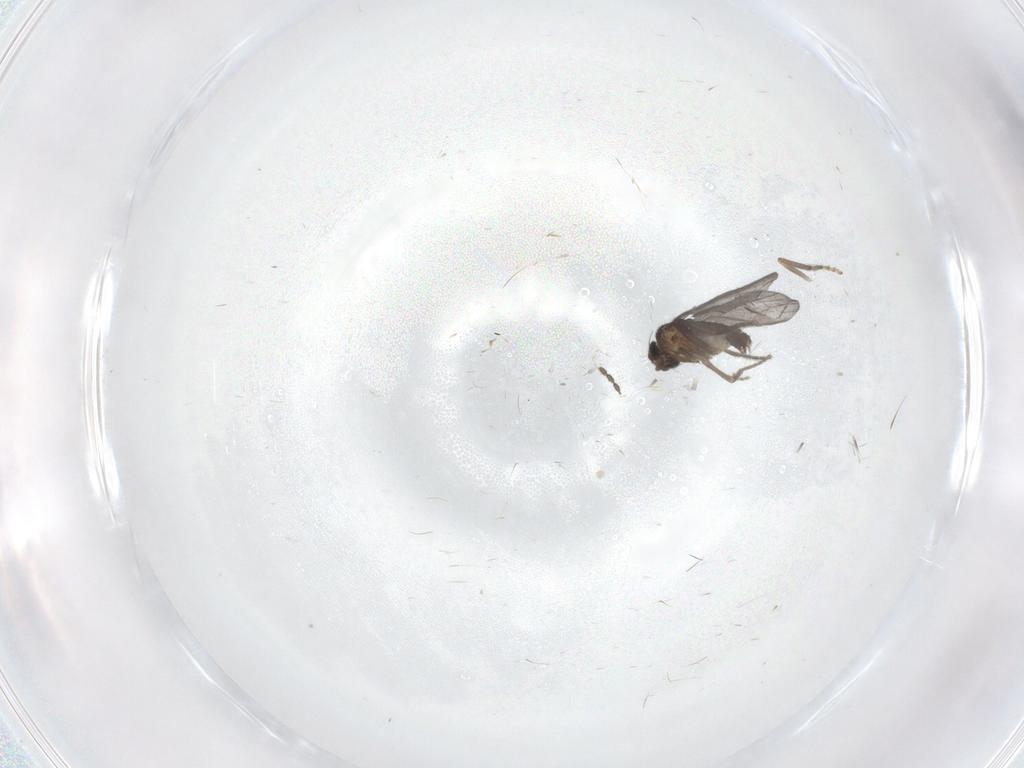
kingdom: Animalia
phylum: Arthropoda
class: Insecta
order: Diptera
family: Phoridae
